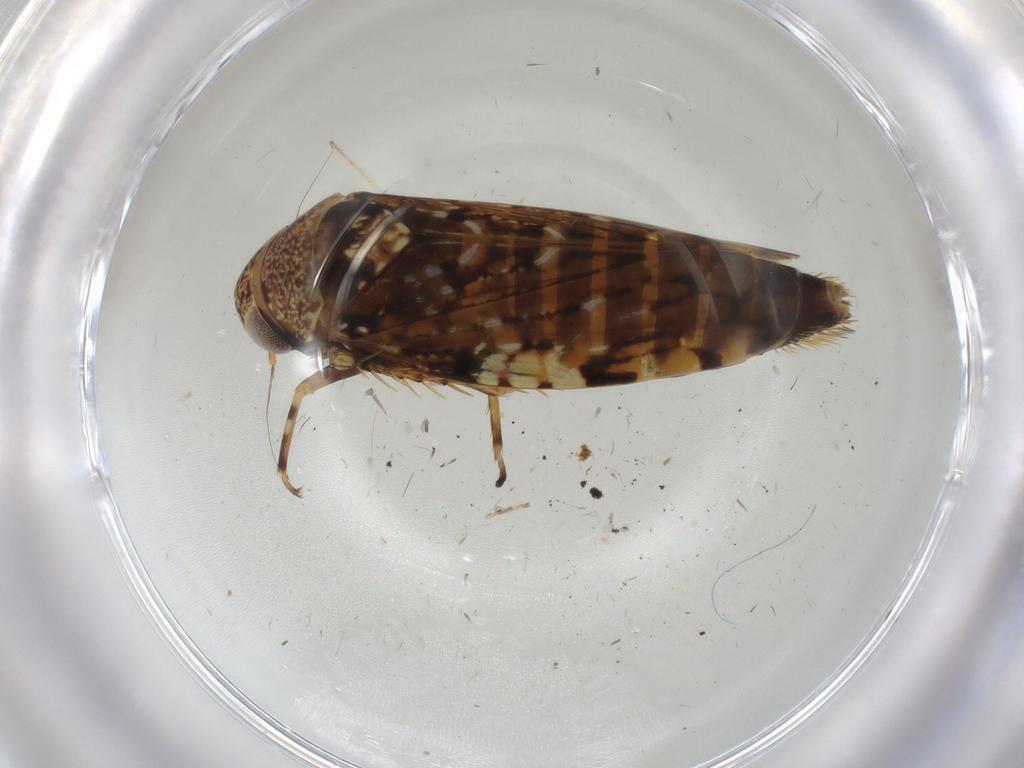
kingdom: Animalia
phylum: Arthropoda
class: Insecta
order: Hemiptera
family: Cicadellidae
